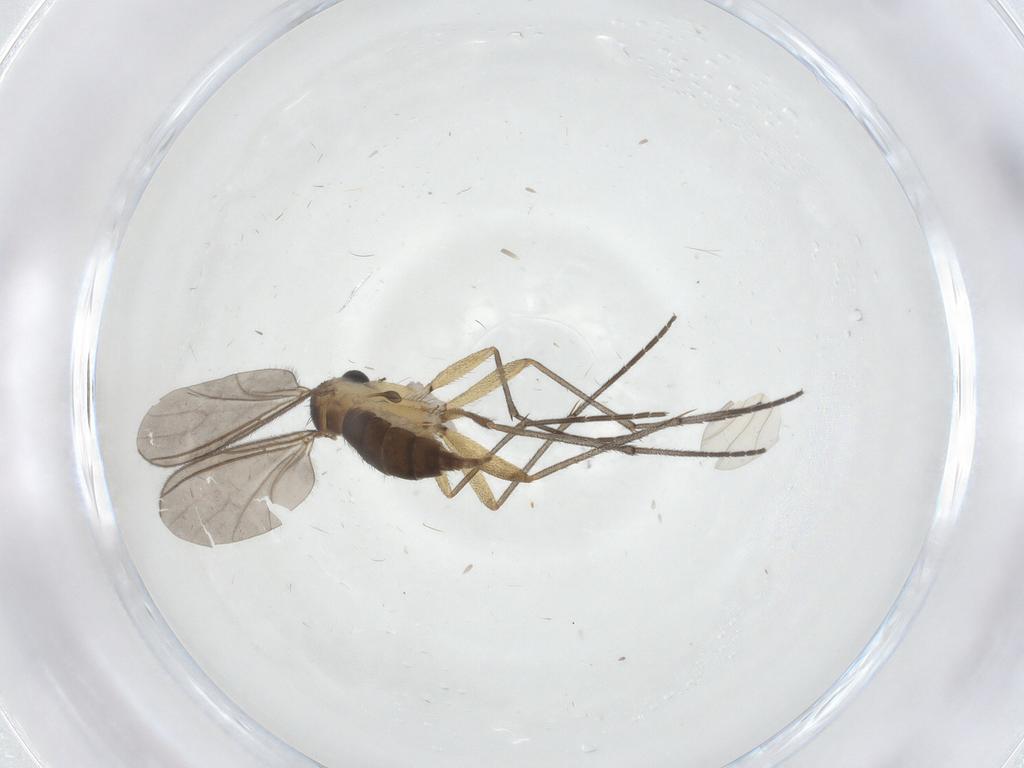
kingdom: Animalia
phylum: Arthropoda
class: Insecta
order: Diptera
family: Sciaridae
